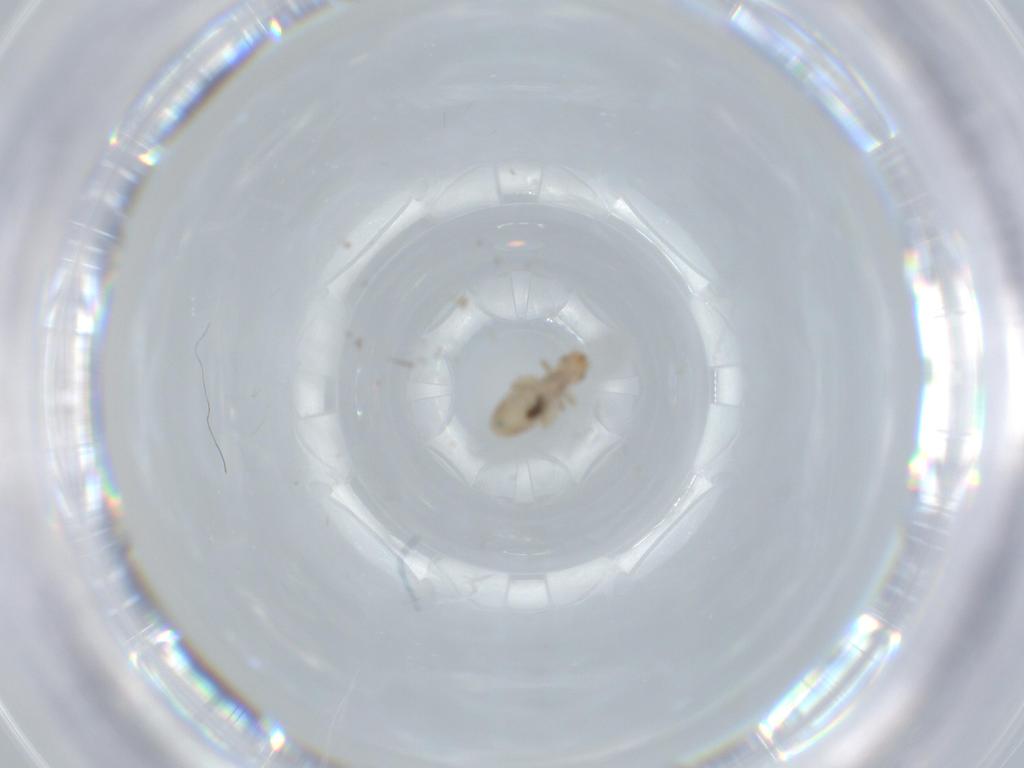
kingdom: Animalia
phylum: Arthropoda
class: Insecta
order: Psocodea
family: Liposcelididae
